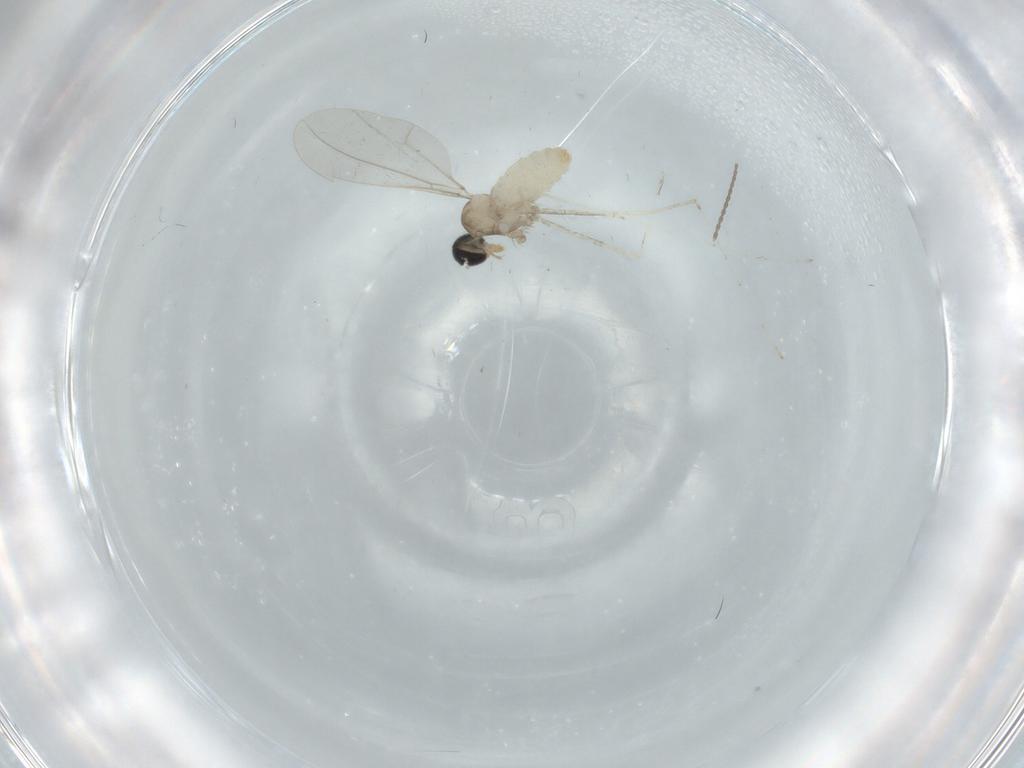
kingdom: Animalia
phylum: Arthropoda
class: Insecta
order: Diptera
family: Cecidomyiidae
